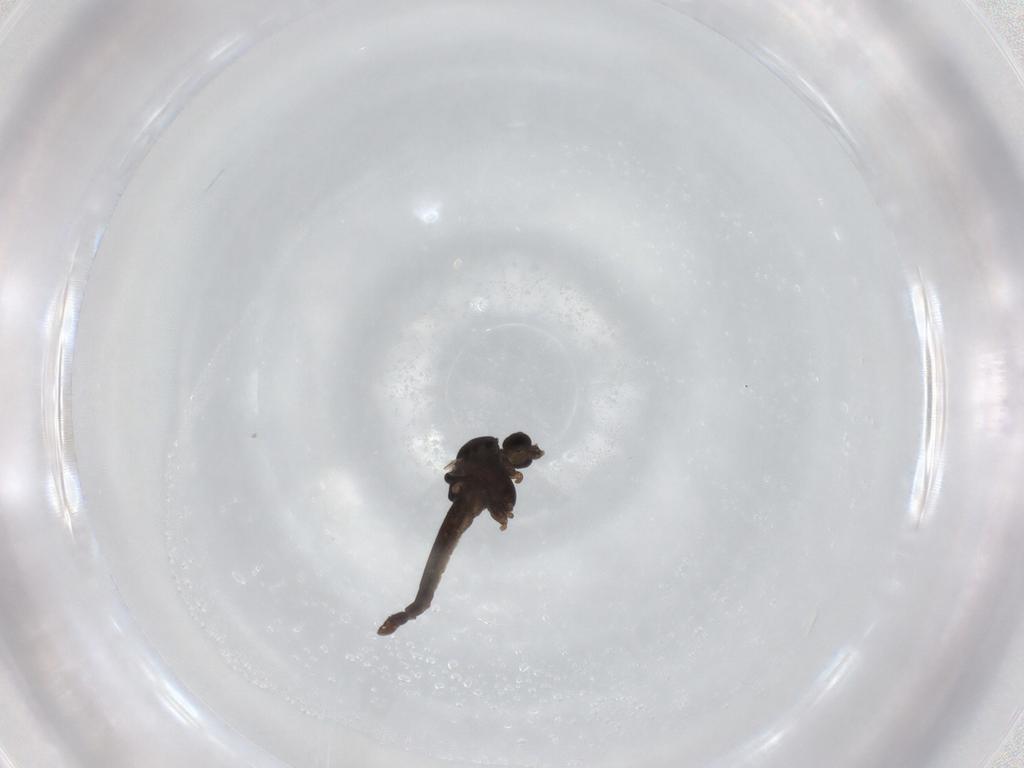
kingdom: Animalia
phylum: Arthropoda
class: Insecta
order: Diptera
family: Chironomidae
